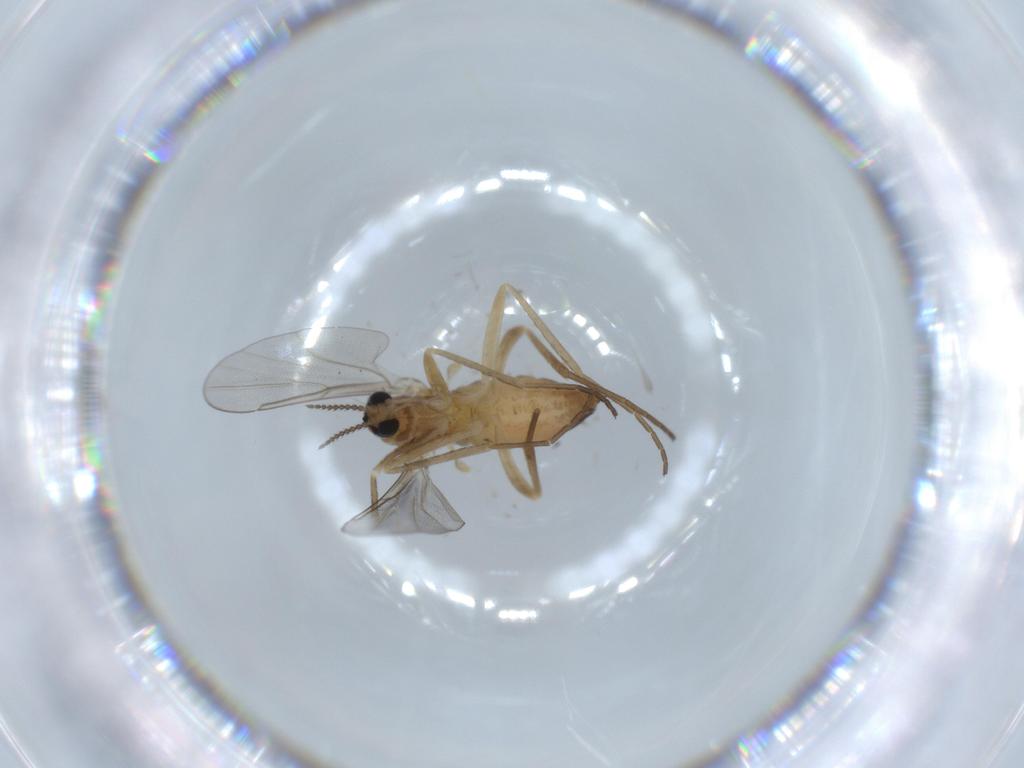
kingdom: Animalia
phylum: Arthropoda
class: Insecta
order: Diptera
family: Cecidomyiidae
